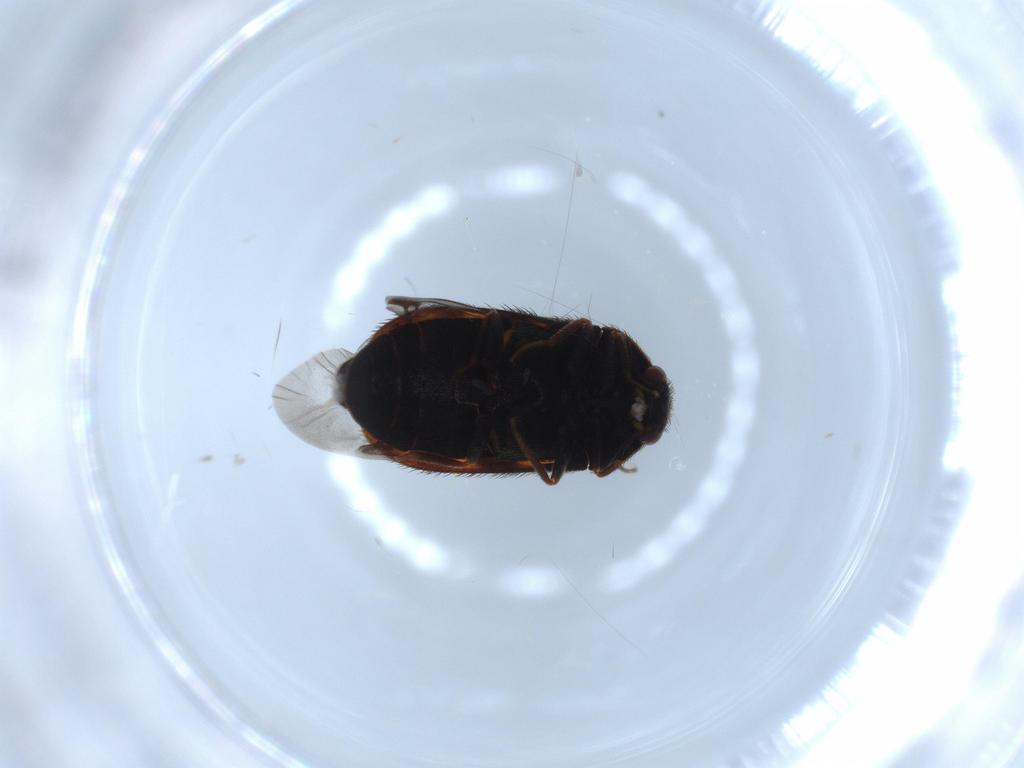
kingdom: Animalia
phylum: Arthropoda
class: Insecta
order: Coleoptera
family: Dermestidae
